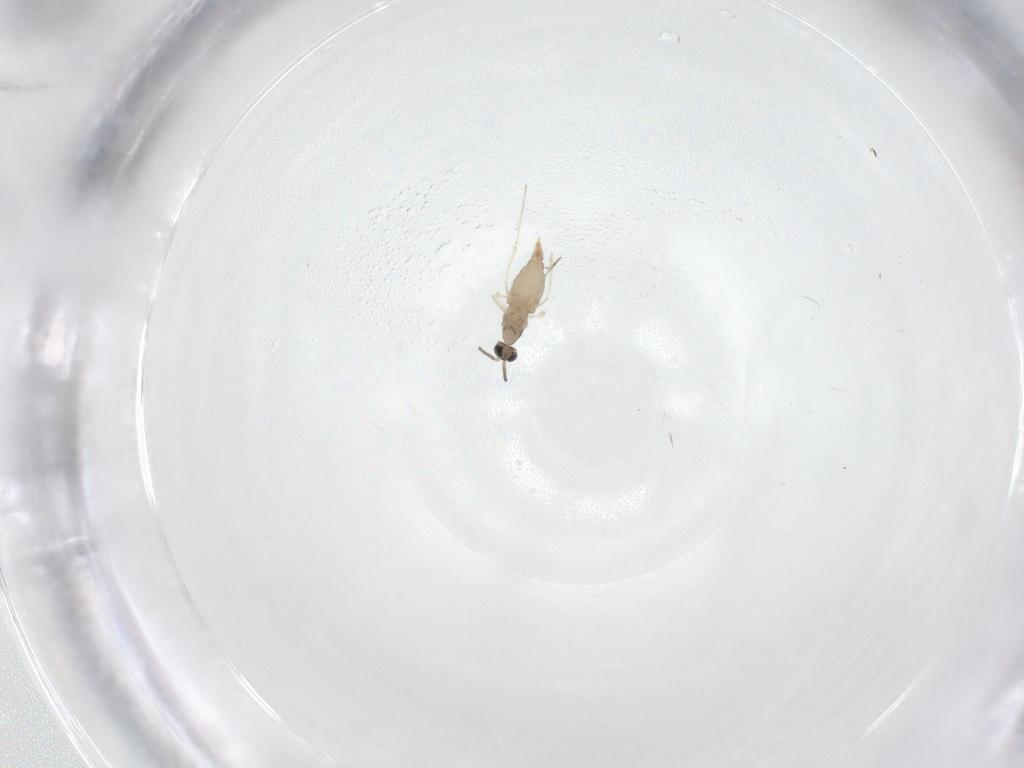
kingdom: Animalia
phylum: Arthropoda
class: Insecta
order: Diptera
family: Cecidomyiidae
